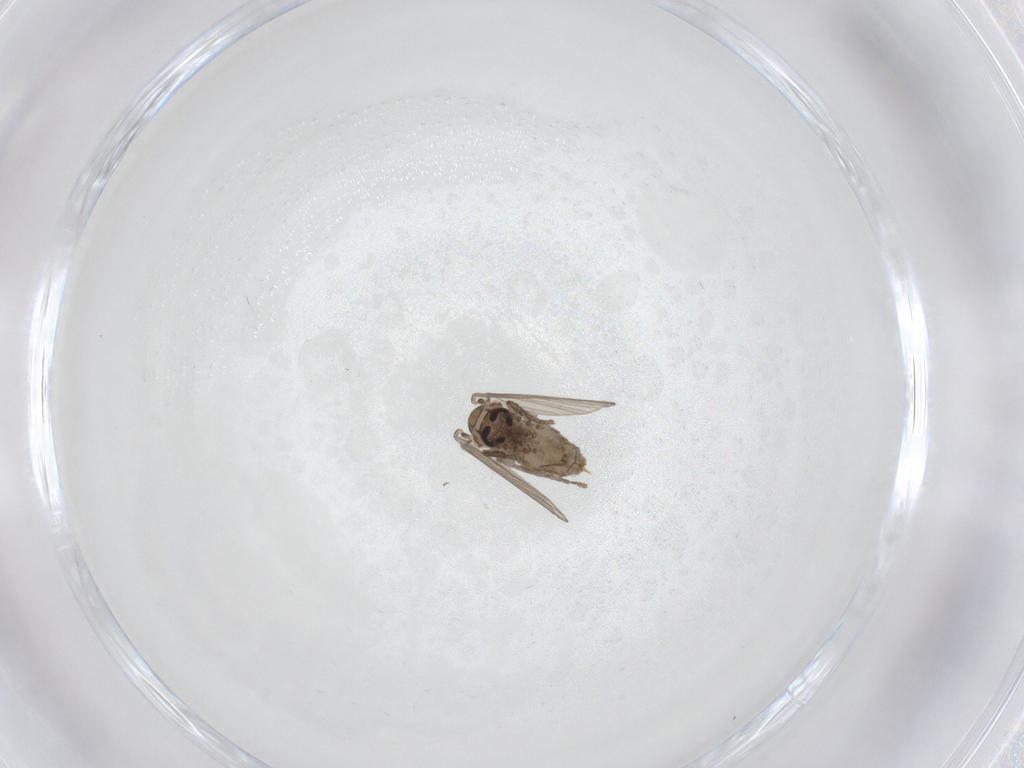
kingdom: Animalia
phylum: Arthropoda
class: Insecta
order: Diptera
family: Psychodidae
